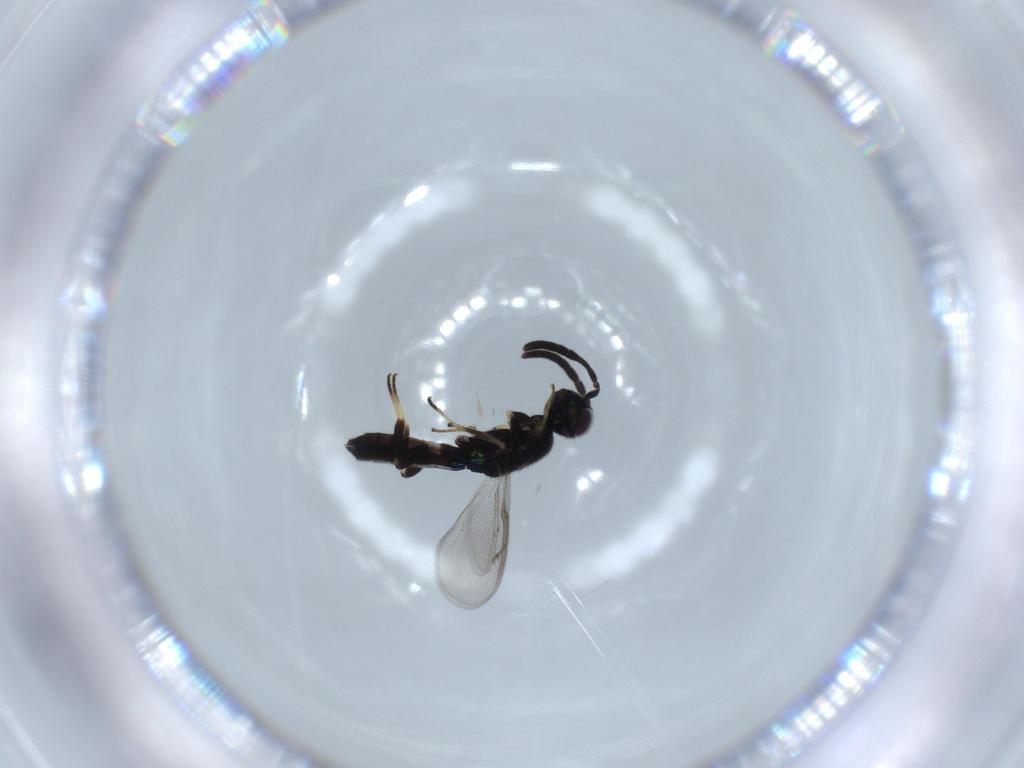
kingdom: Animalia
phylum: Arthropoda
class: Insecta
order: Hymenoptera
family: Eupelmidae
